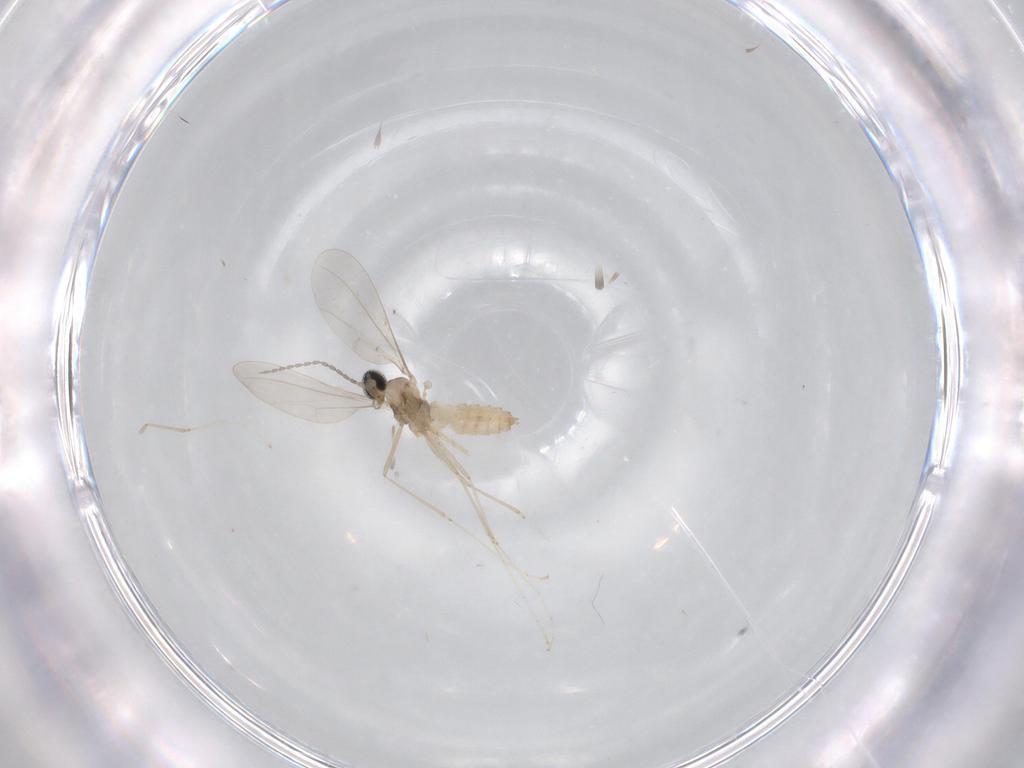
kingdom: Animalia
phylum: Arthropoda
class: Insecta
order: Diptera
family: Cecidomyiidae
